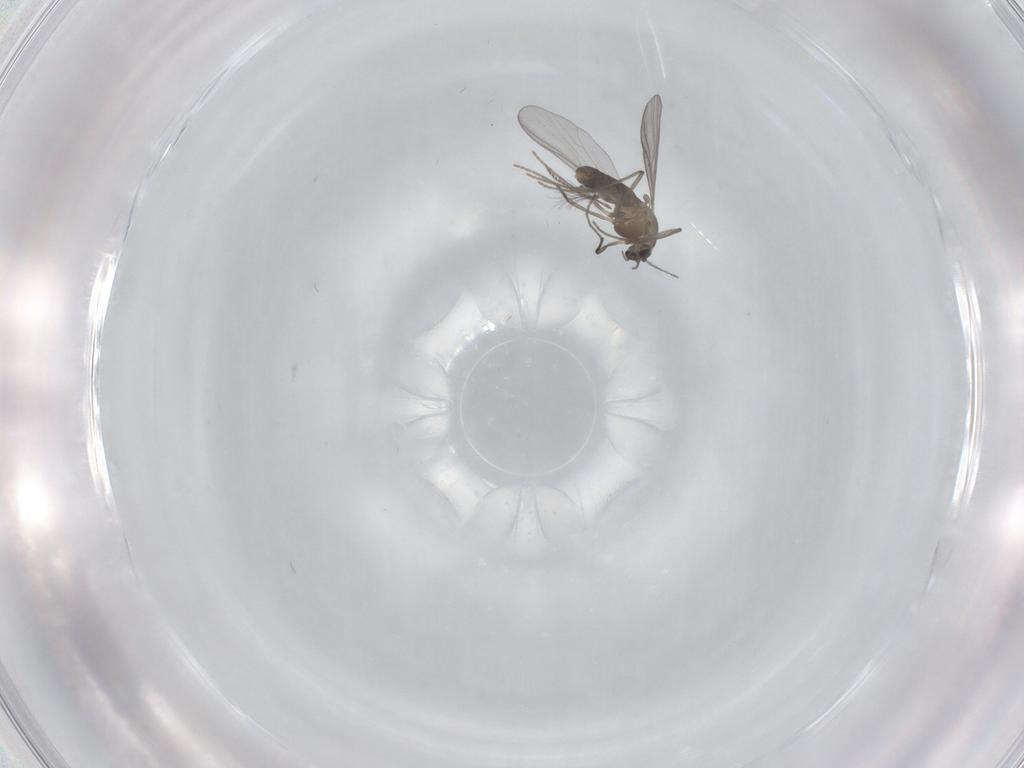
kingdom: Animalia
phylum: Arthropoda
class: Insecta
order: Diptera
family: Chironomidae
